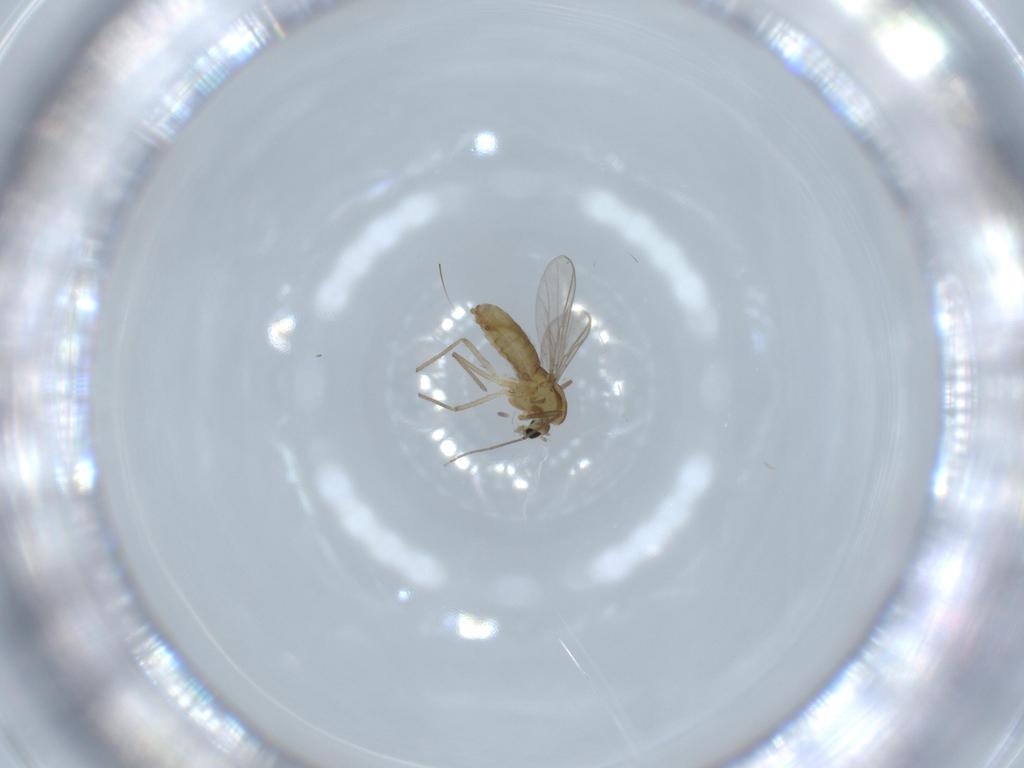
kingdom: Animalia
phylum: Arthropoda
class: Insecta
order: Diptera
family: Chironomidae
